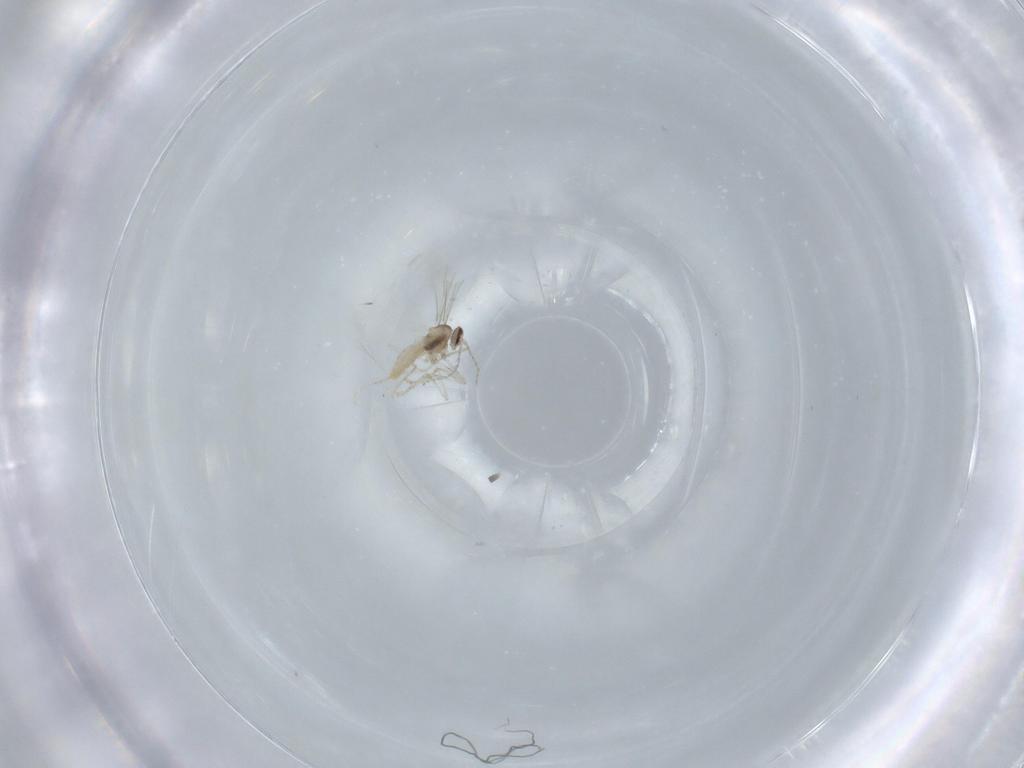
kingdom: Animalia
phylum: Arthropoda
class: Insecta
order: Diptera
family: Cecidomyiidae
